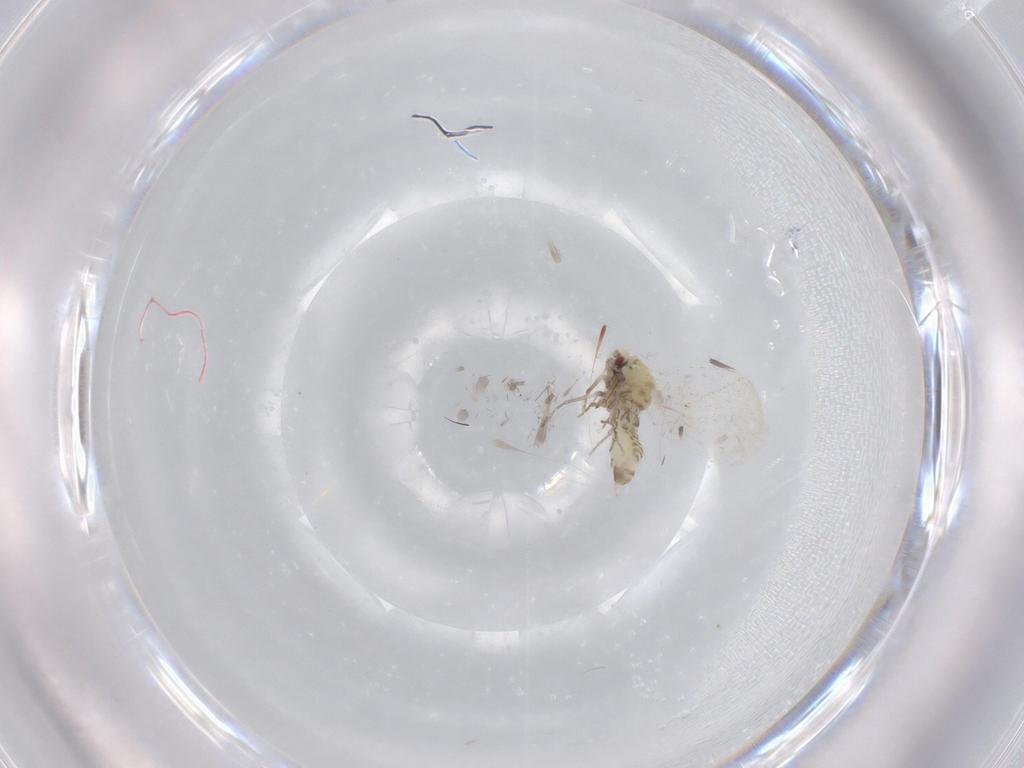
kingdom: Animalia
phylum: Arthropoda
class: Insecta
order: Hemiptera
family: Aleyrodidae
